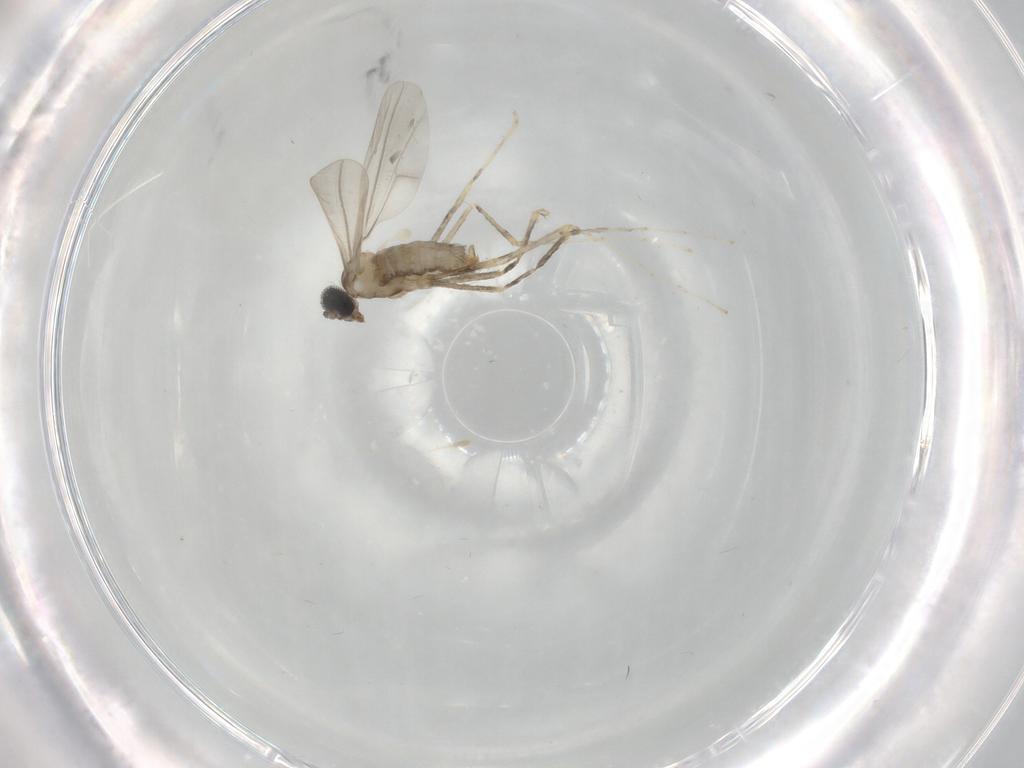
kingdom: Animalia
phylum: Arthropoda
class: Insecta
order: Diptera
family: Cecidomyiidae
